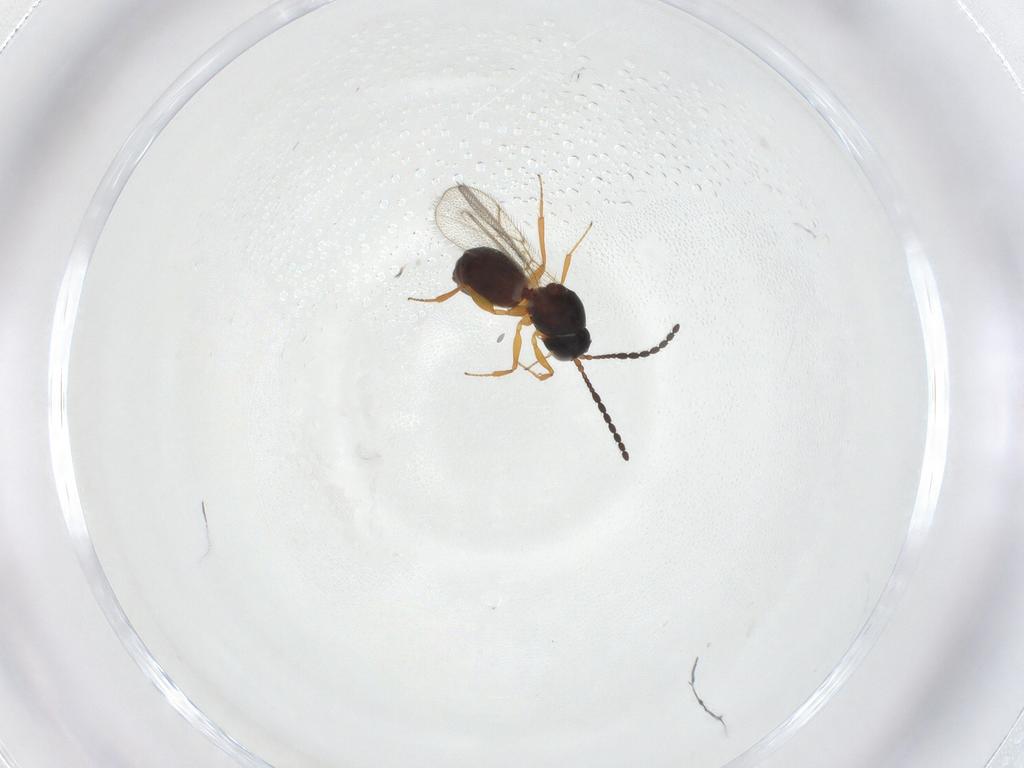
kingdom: Animalia
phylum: Arthropoda
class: Insecta
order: Hymenoptera
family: Figitidae
